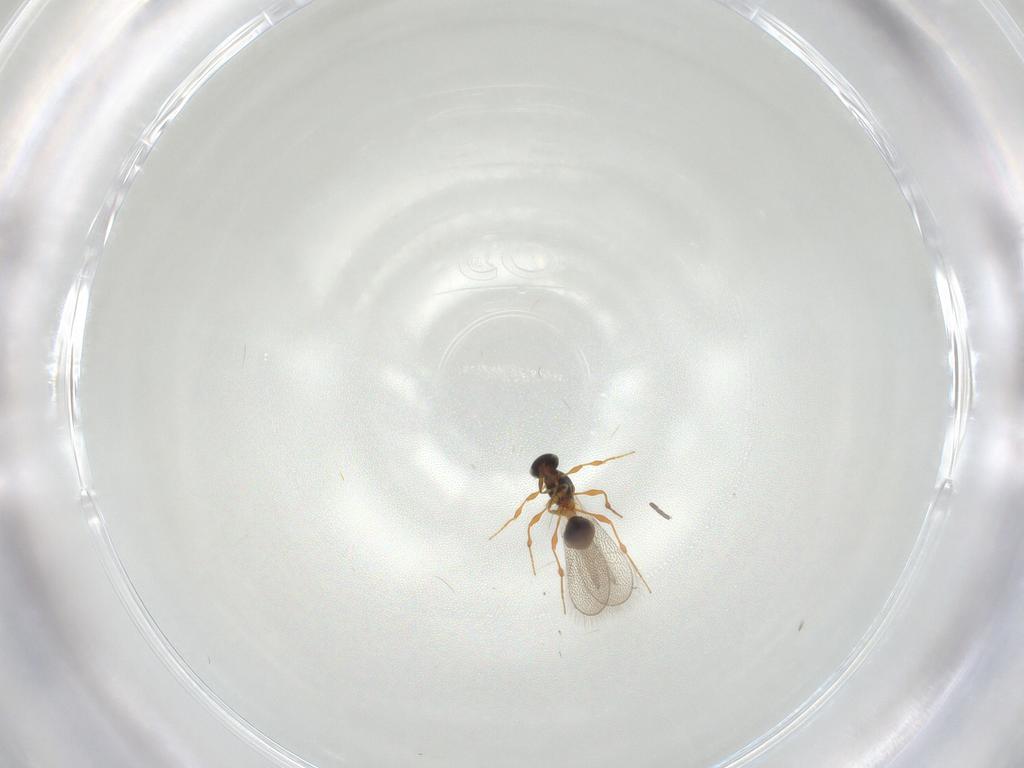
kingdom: Animalia
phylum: Arthropoda
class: Insecta
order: Hymenoptera
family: Platygastridae
